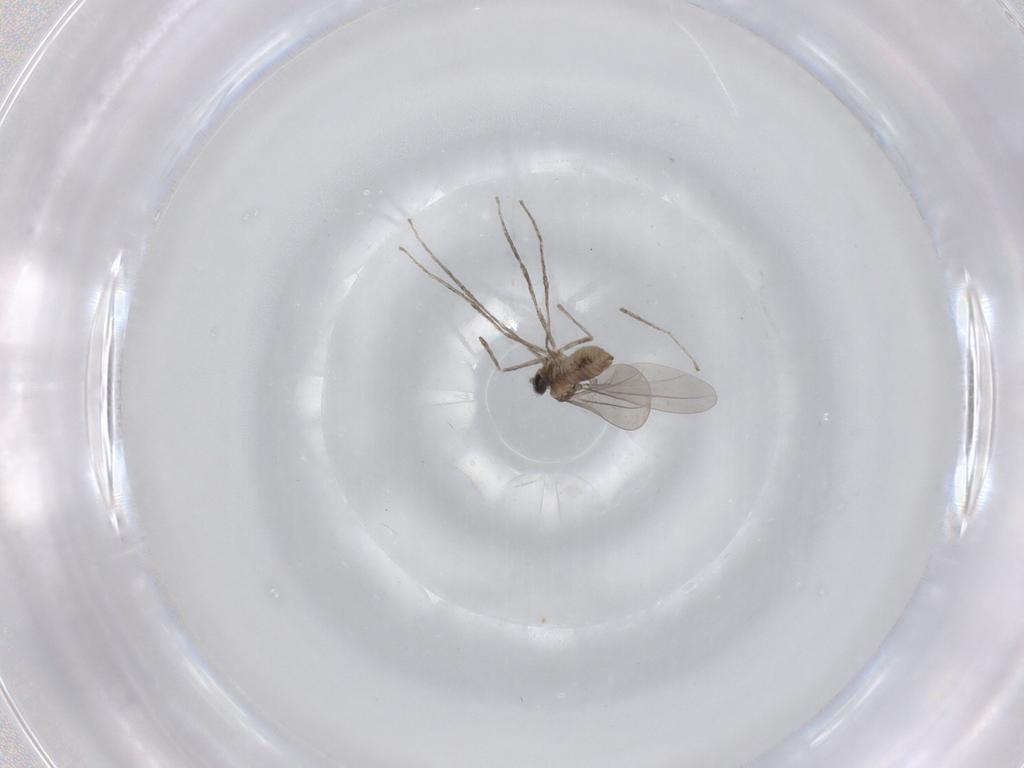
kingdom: Animalia
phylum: Arthropoda
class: Insecta
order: Diptera
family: Cecidomyiidae
